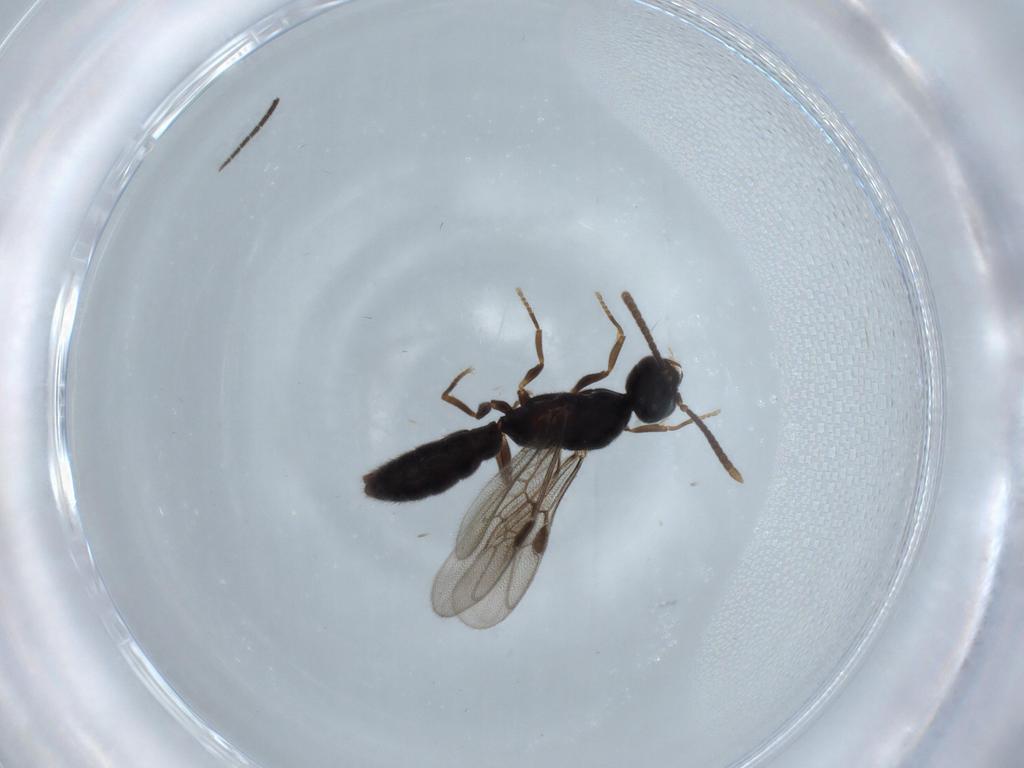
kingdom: Animalia
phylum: Arthropoda
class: Insecta
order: Hymenoptera
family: Formicidae
